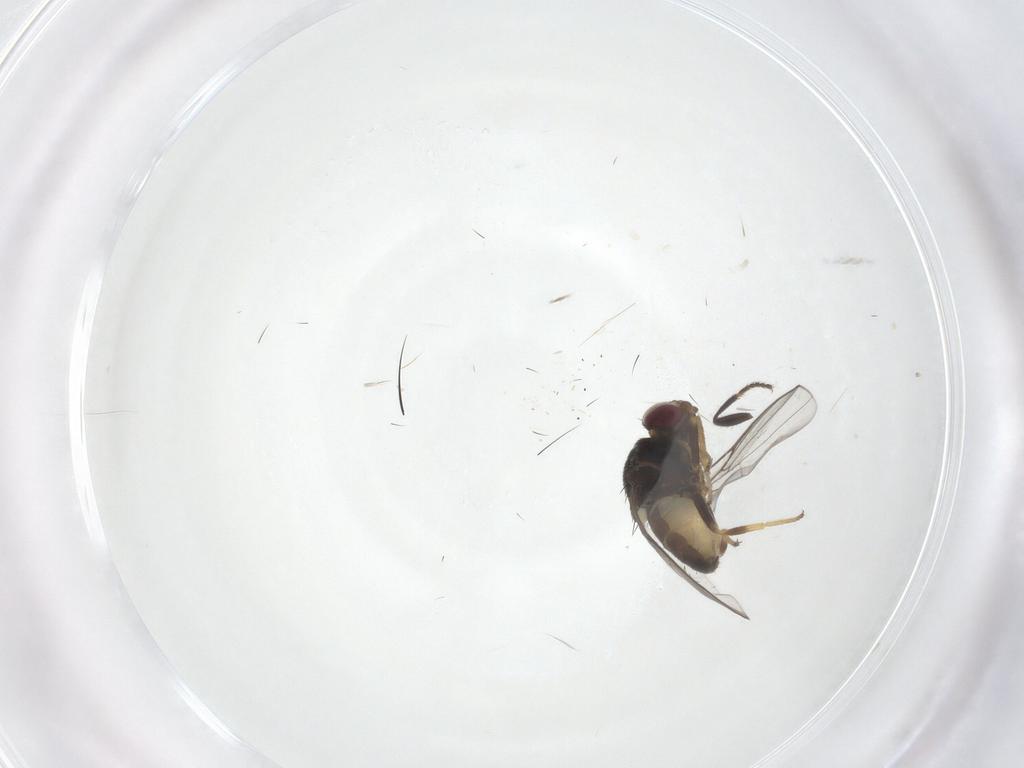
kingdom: Animalia
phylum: Arthropoda
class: Insecta
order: Diptera
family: Chloropidae
